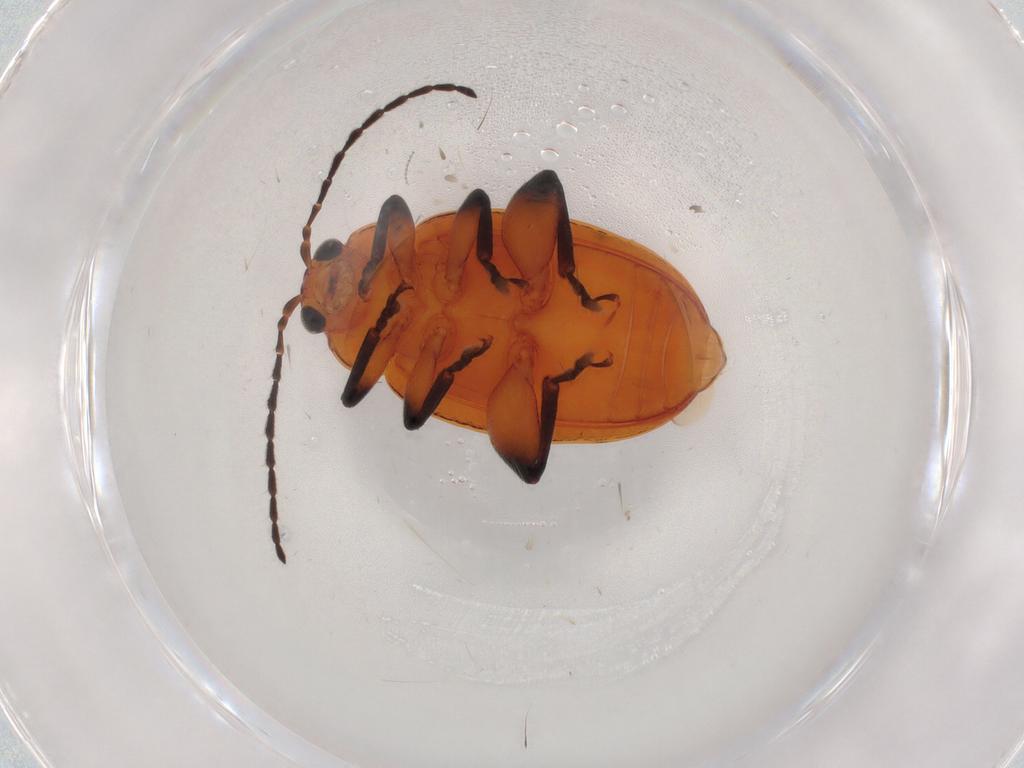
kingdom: Animalia
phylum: Arthropoda
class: Insecta
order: Coleoptera
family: Chrysomelidae
